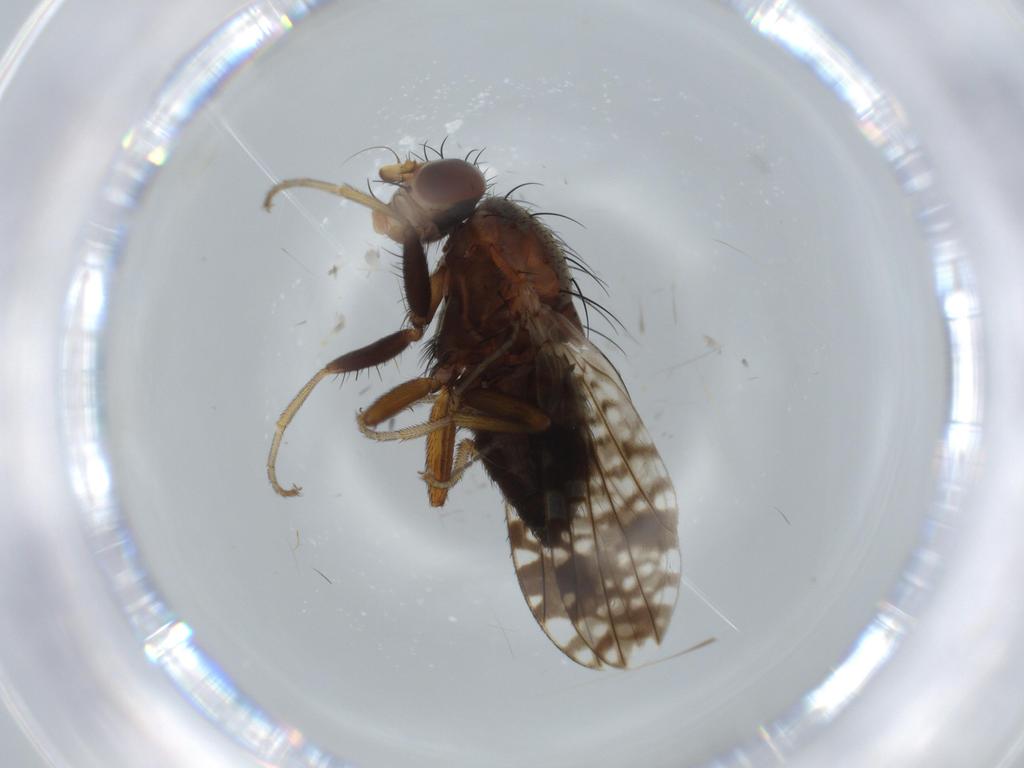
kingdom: Animalia
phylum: Arthropoda
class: Insecta
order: Diptera
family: Tephritidae
